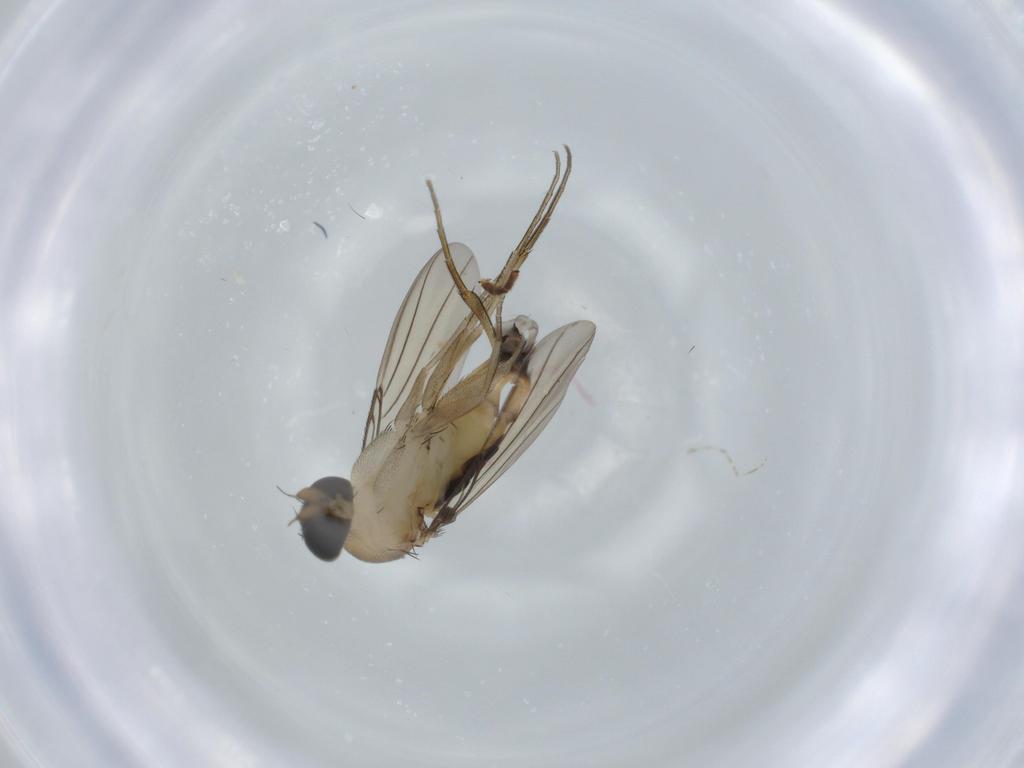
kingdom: Animalia
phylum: Arthropoda
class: Insecta
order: Diptera
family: Phoridae
